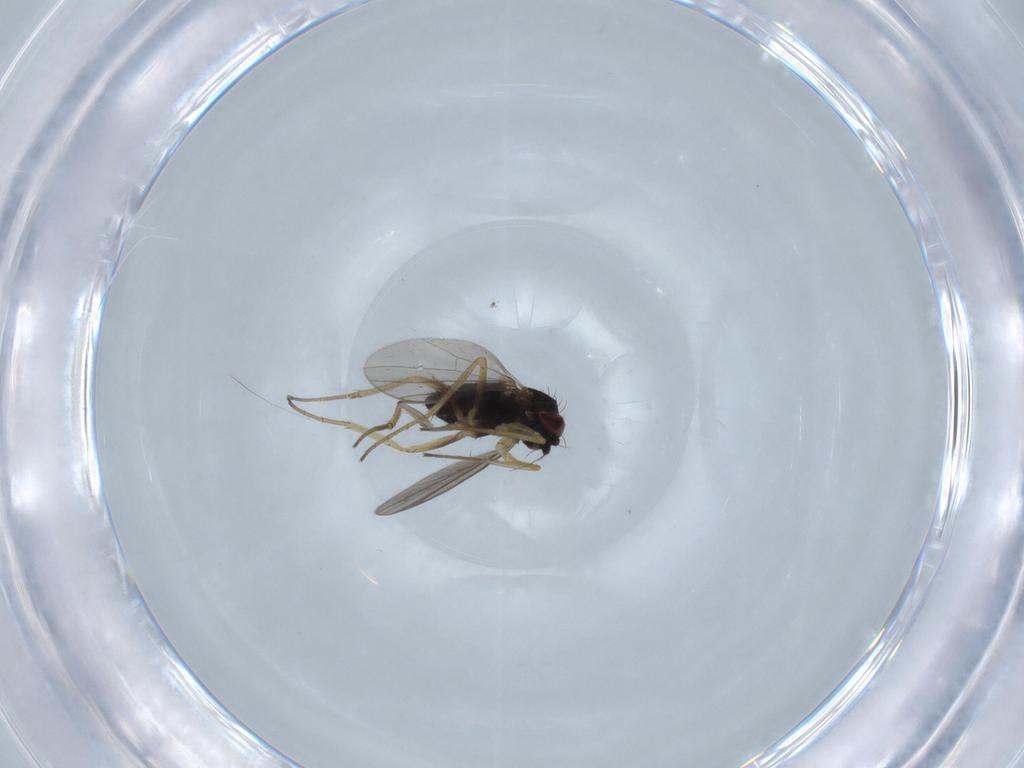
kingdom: Animalia
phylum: Arthropoda
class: Insecta
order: Diptera
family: Dolichopodidae
